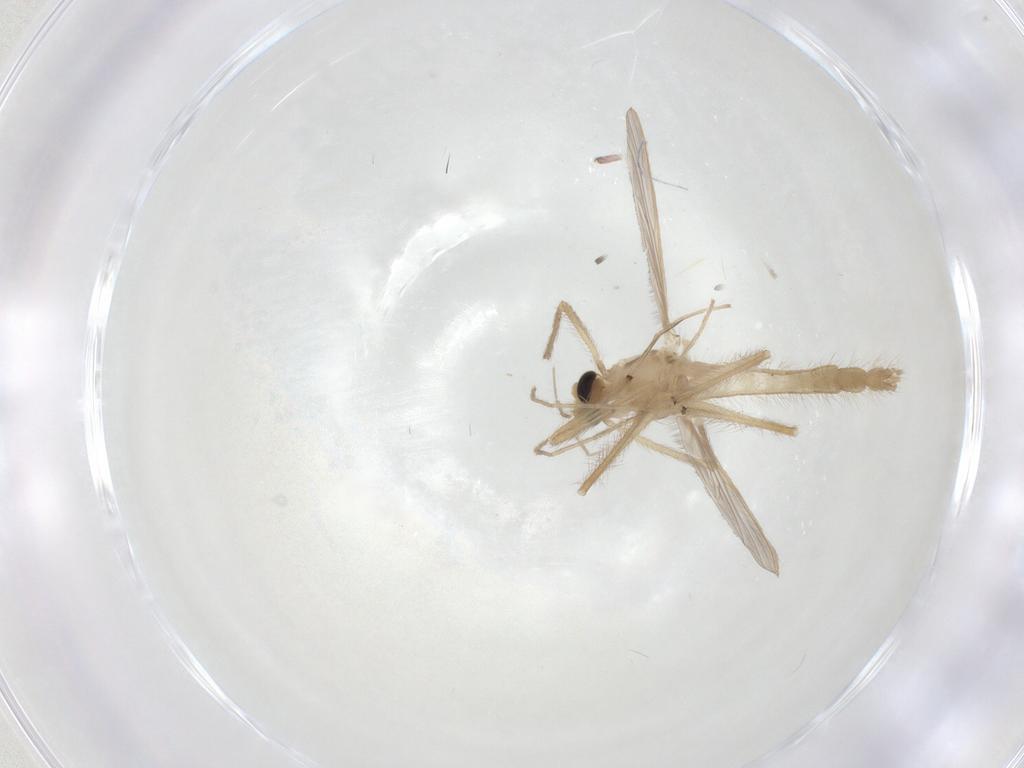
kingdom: Animalia
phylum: Arthropoda
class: Insecta
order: Diptera
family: Chironomidae
